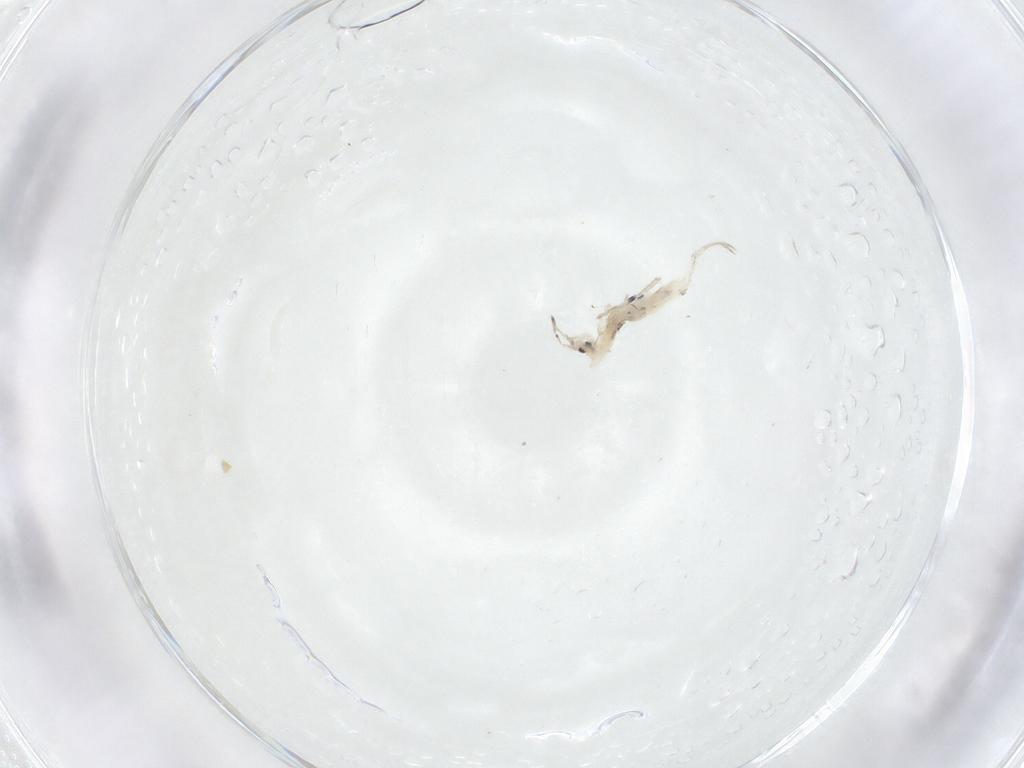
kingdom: Animalia
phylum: Arthropoda
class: Collembola
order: Entomobryomorpha
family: Entomobryidae
